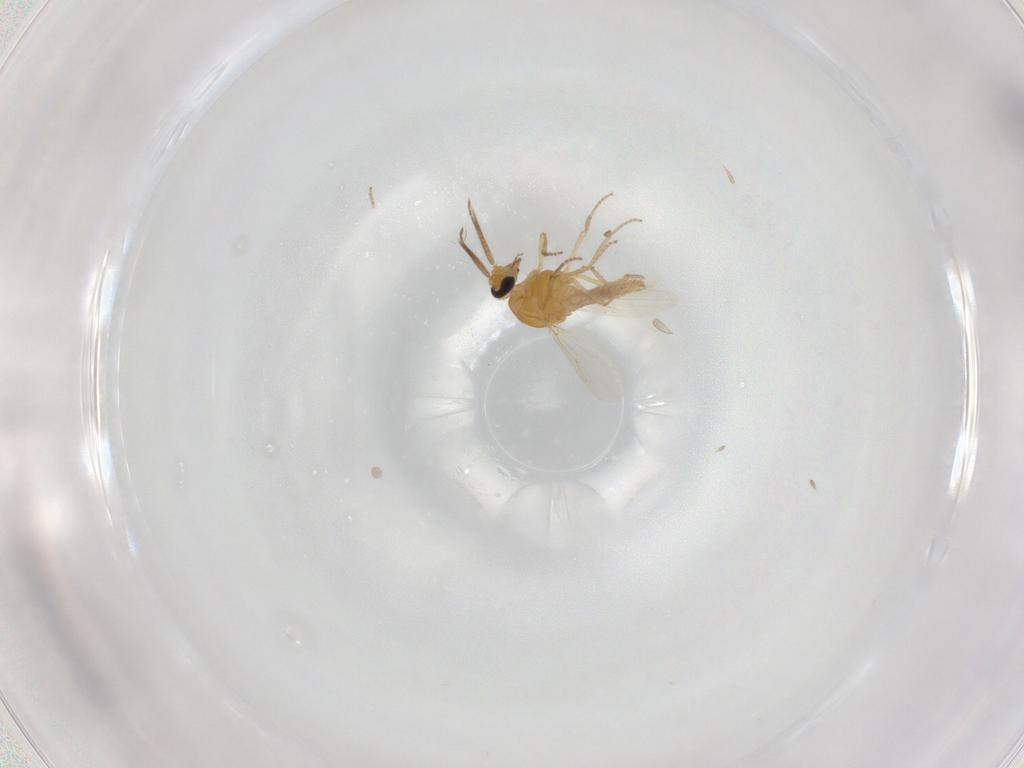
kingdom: Animalia
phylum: Arthropoda
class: Insecta
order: Diptera
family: Ceratopogonidae
